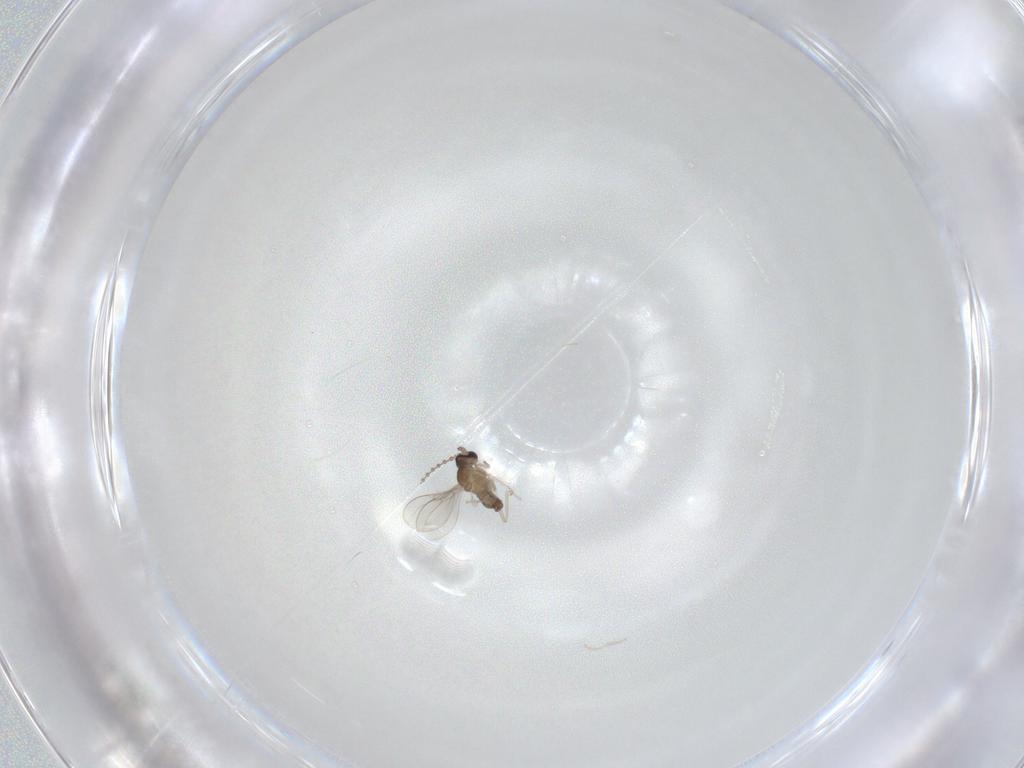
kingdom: Animalia
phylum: Arthropoda
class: Insecta
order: Diptera
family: Cecidomyiidae
